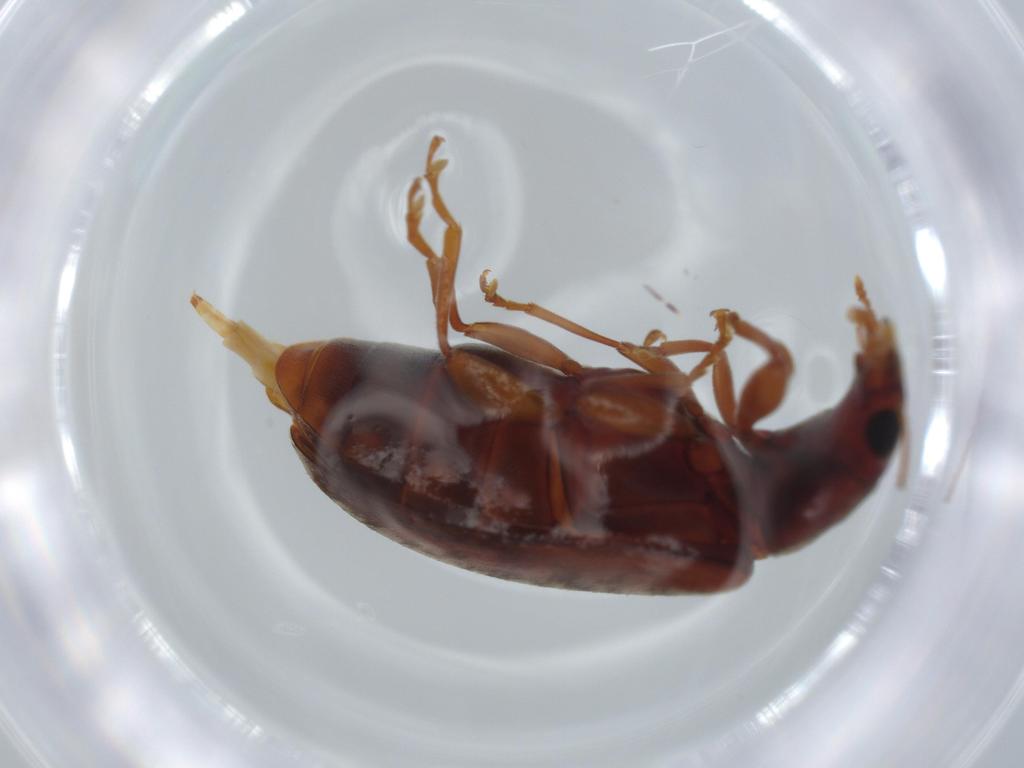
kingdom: Animalia
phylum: Arthropoda
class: Insecta
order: Coleoptera
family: Mycteridae
